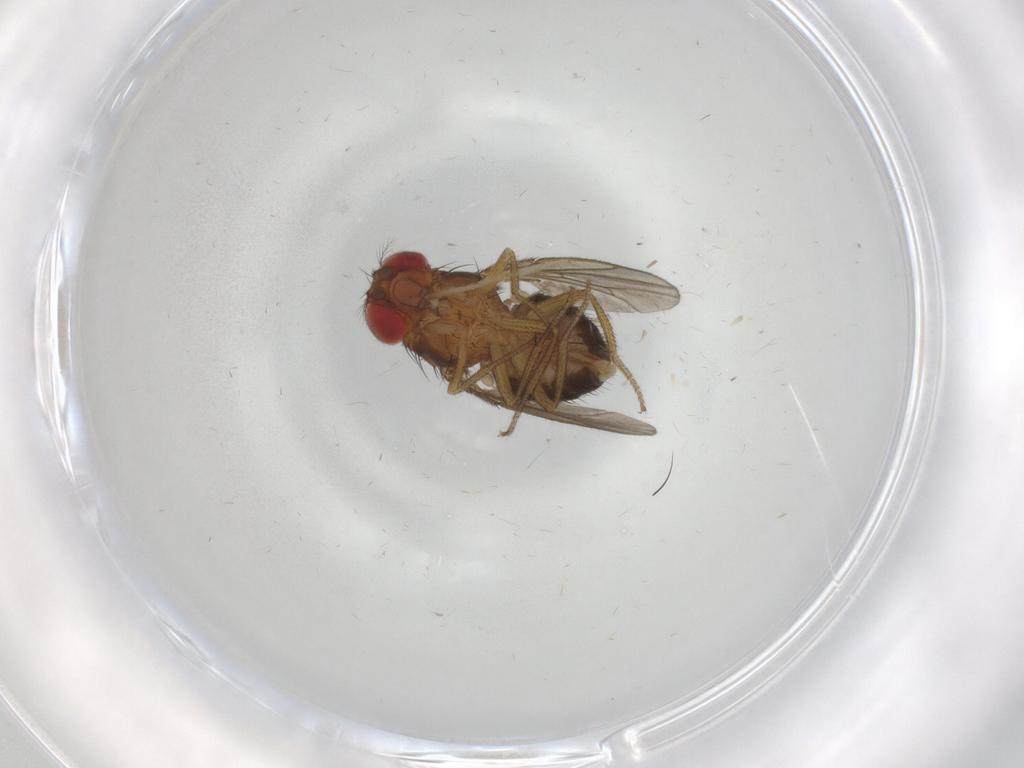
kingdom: Animalia
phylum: Arthropoda
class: Insecta
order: Diptera
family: Drosophilidae
